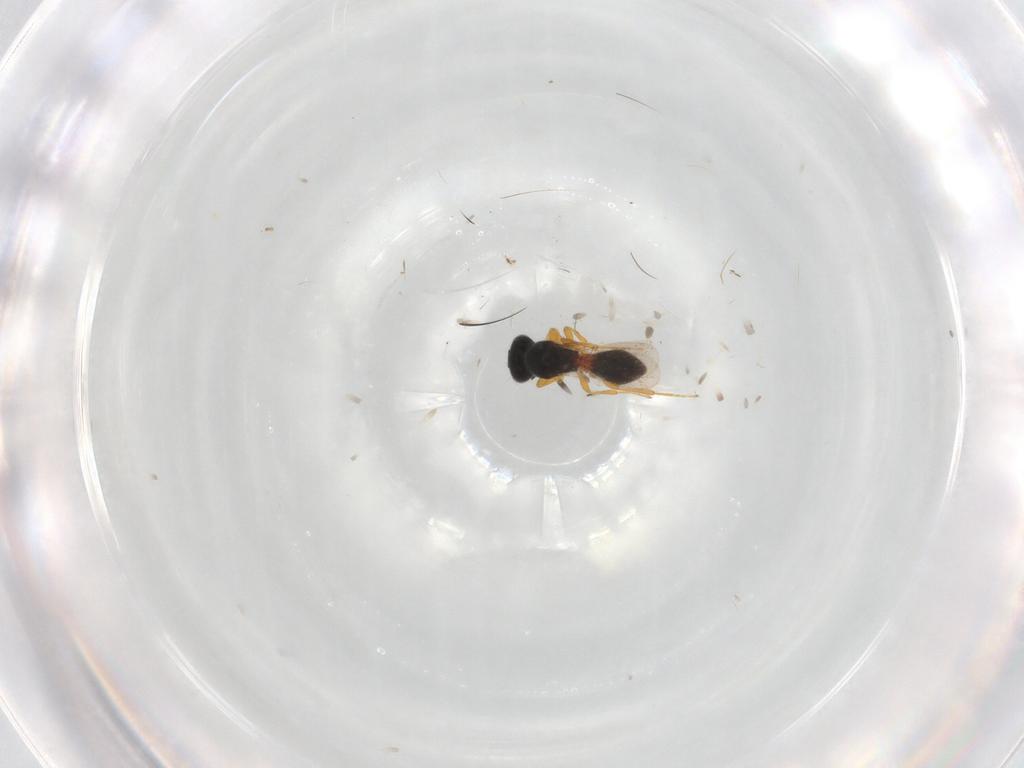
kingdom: Animalia
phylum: Arthropoda
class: Insecta
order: Hymenoptera
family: Platygastridae
